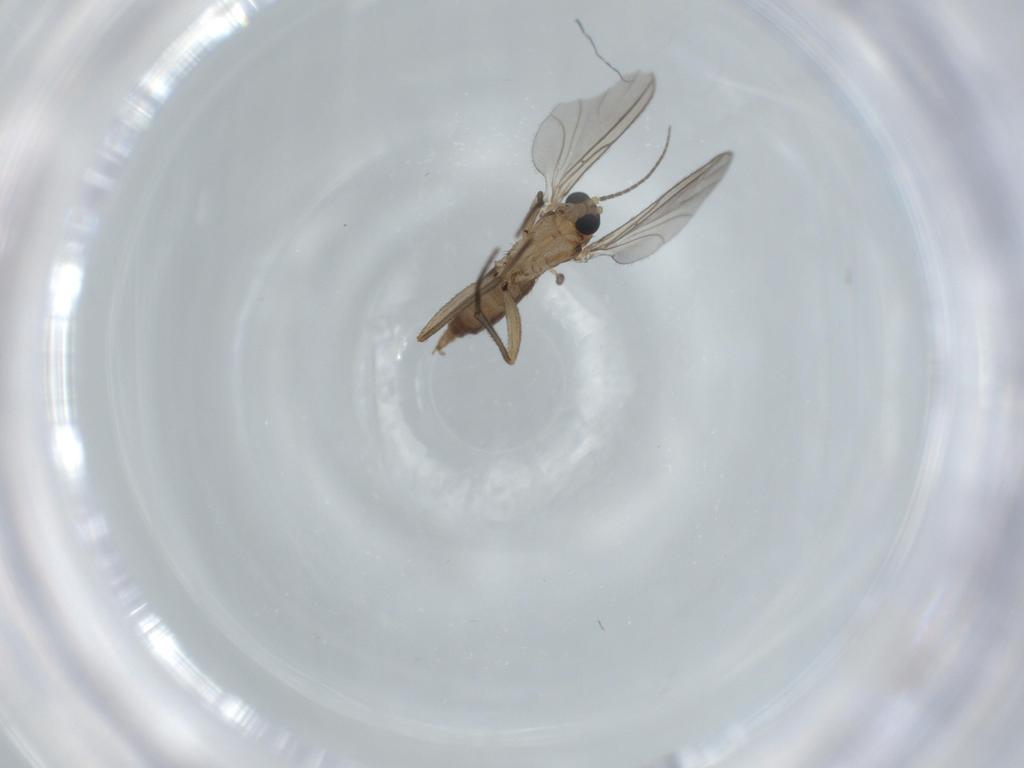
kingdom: Animalia
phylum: Arthropoda
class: Insecta
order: Diptera
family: Sciaridae
